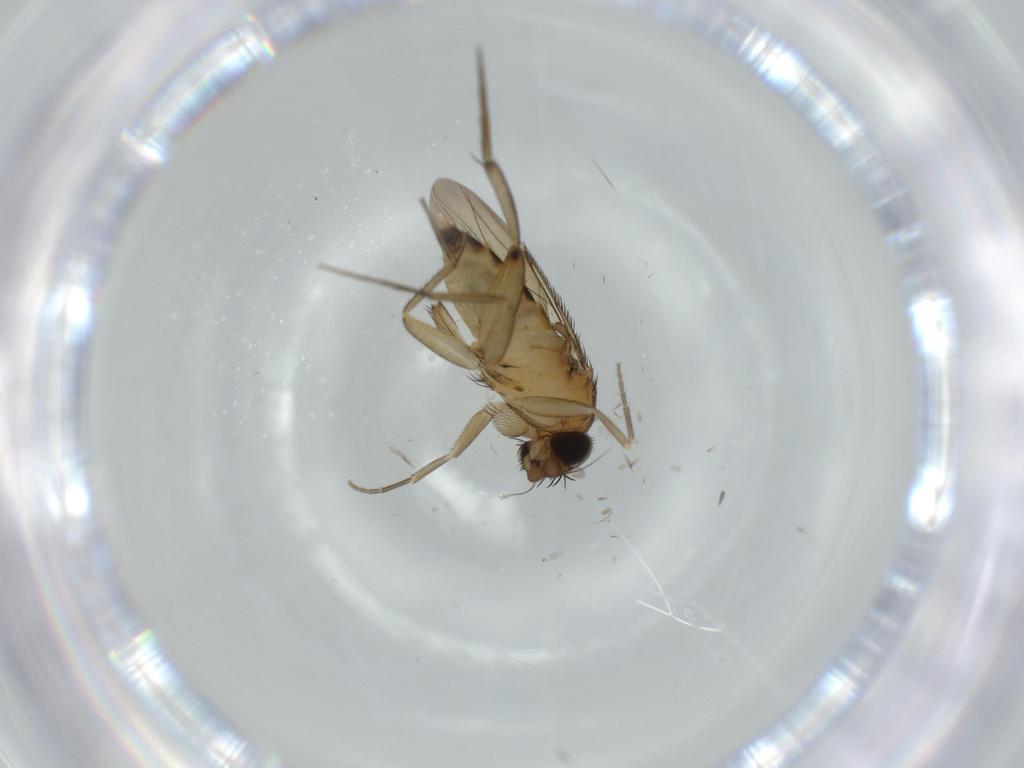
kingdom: Animalia
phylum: Arthropoda
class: Insecta
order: Diptera
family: Phoridae
